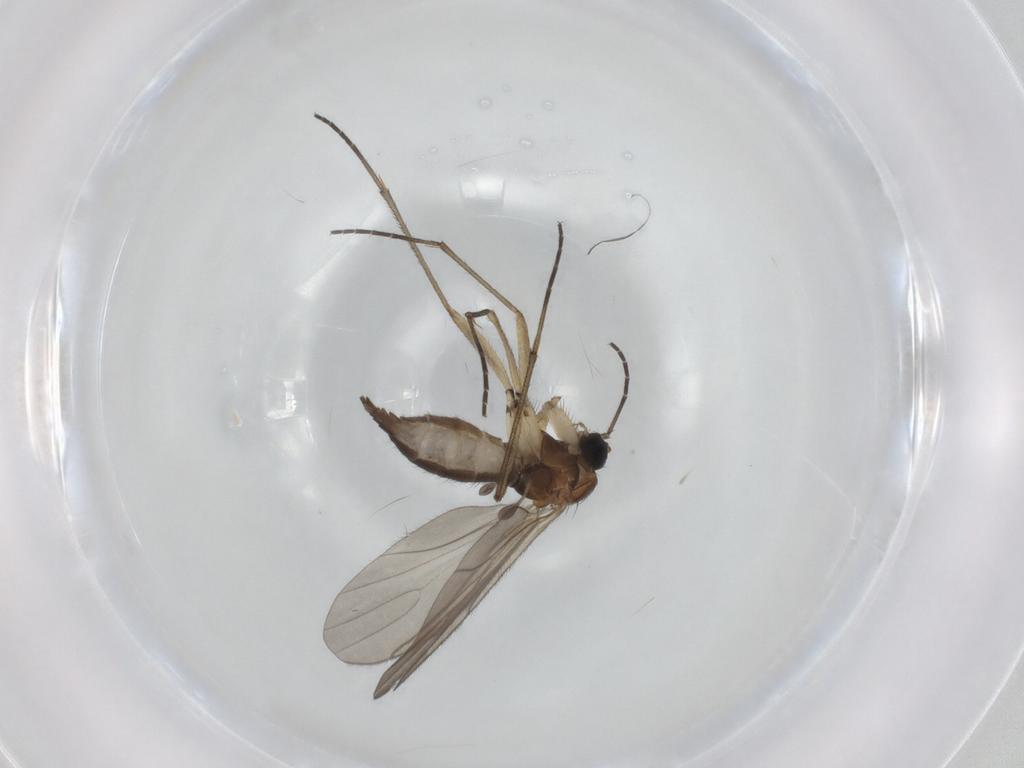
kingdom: Animalia
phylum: Arthropoda
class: Insecta
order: Diptera
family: Sciaridae
